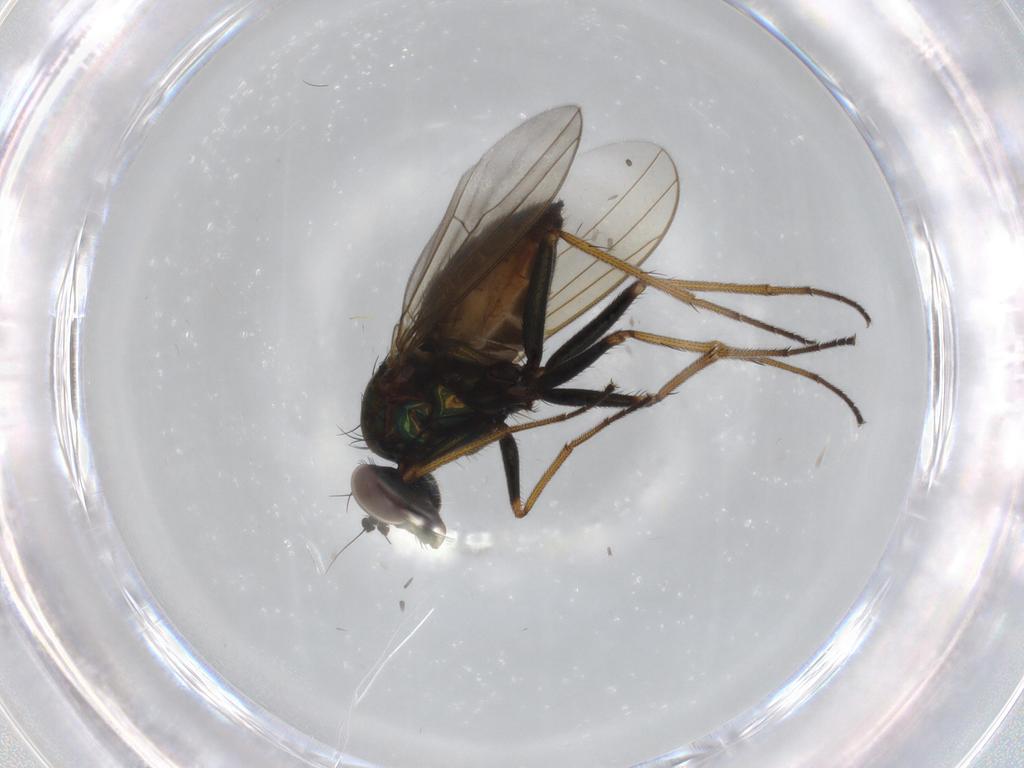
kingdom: Animalia
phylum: Arthropoda
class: Insecta
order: Diptera
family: Dolichopodidae
